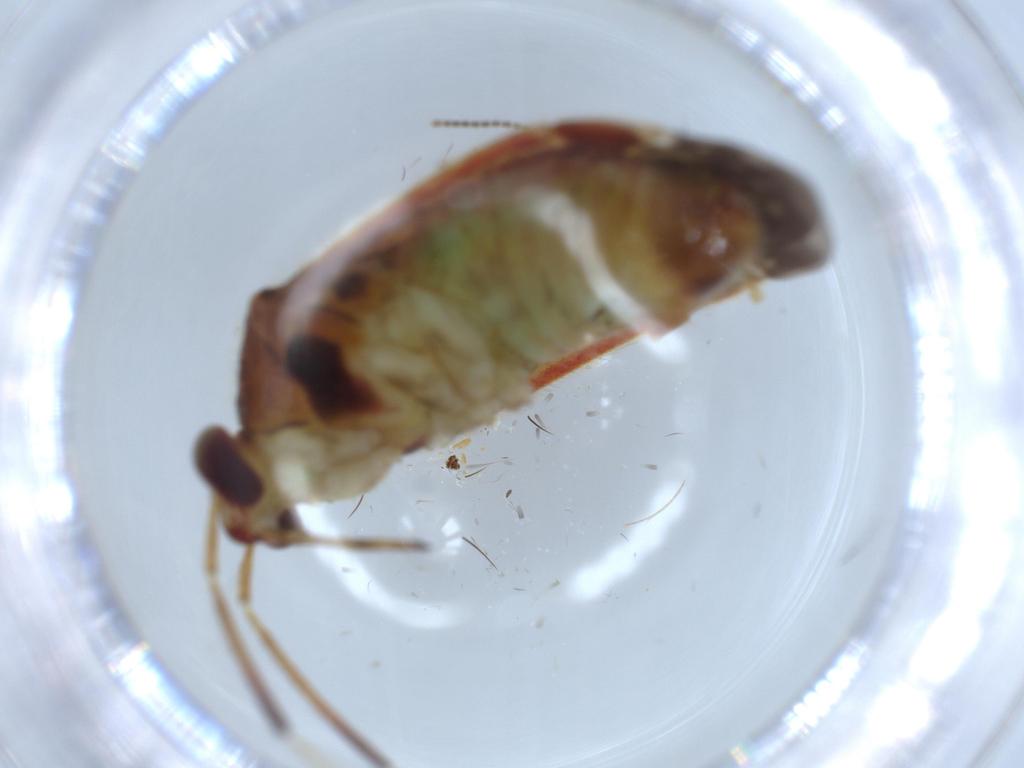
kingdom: Animalia
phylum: Arthropoda
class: Insecta
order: Hemiptera
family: Miridae
